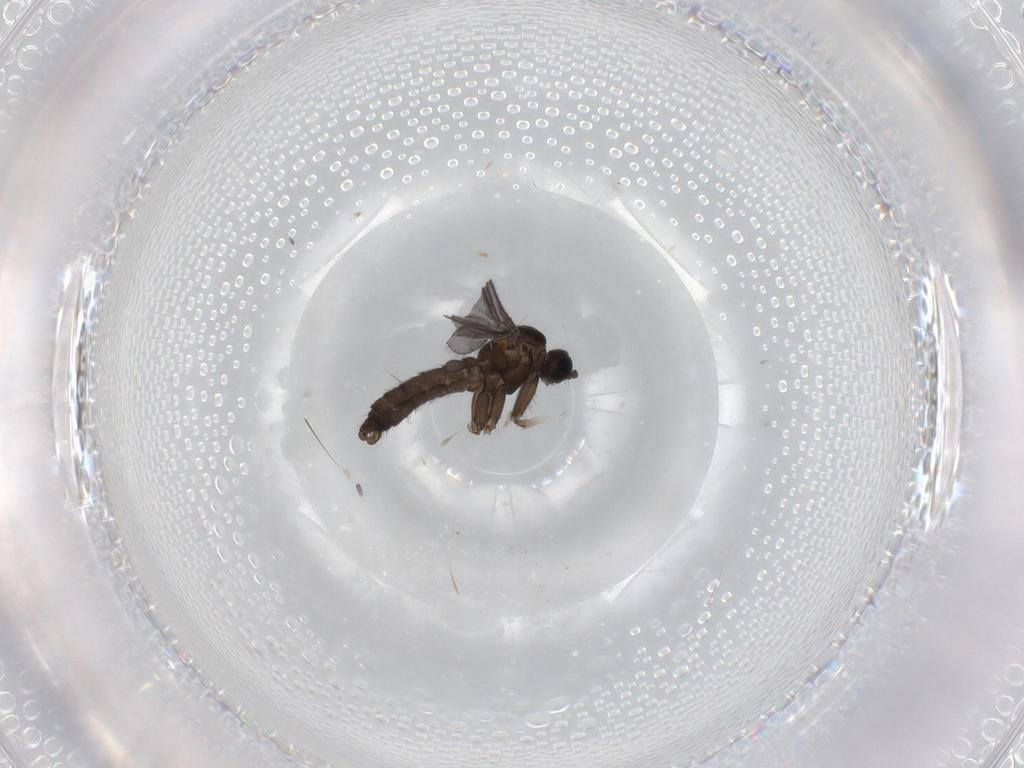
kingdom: Animalia
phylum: Arthropoda
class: Insecta
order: Diptera
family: Sciaridae
